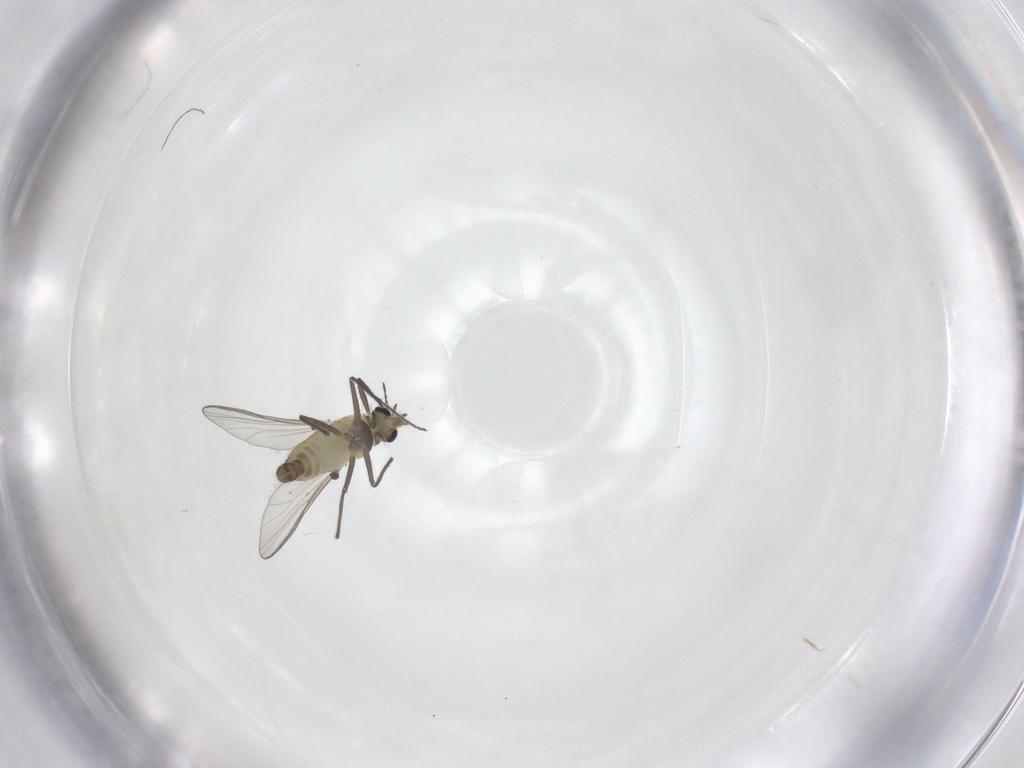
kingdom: Animalia
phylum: Arthropoda
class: Insecta
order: Diptera
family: Chironomidae
